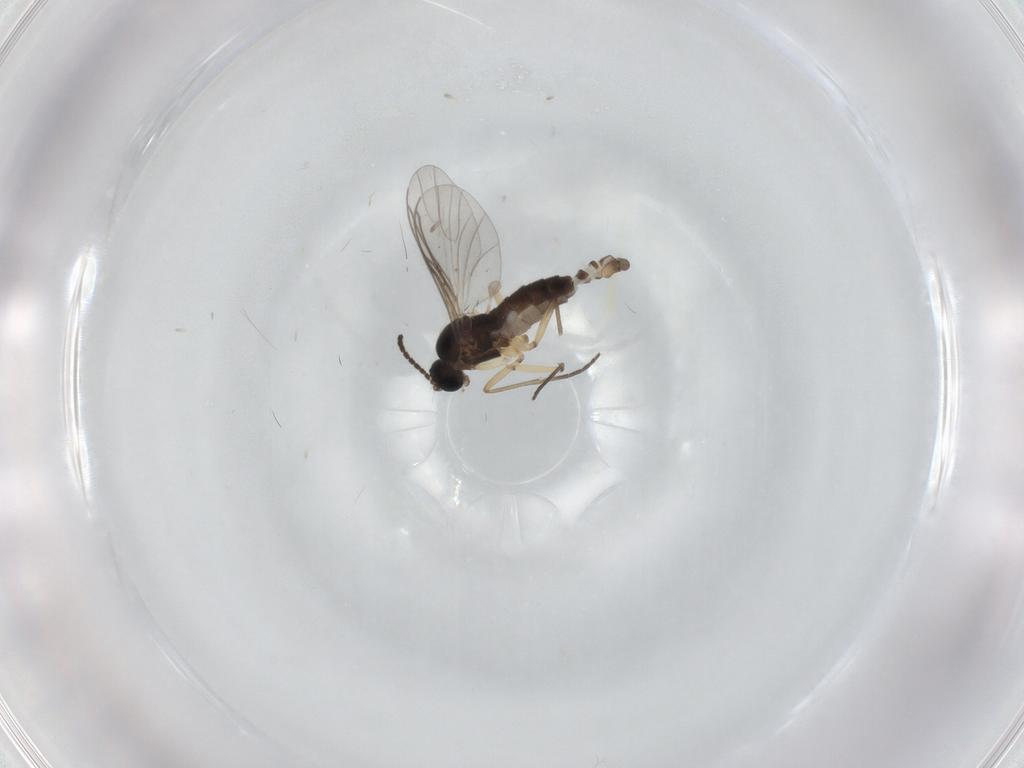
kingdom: Animalia
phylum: Arthropoda
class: Insecta
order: Diptera
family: Sciaridae
